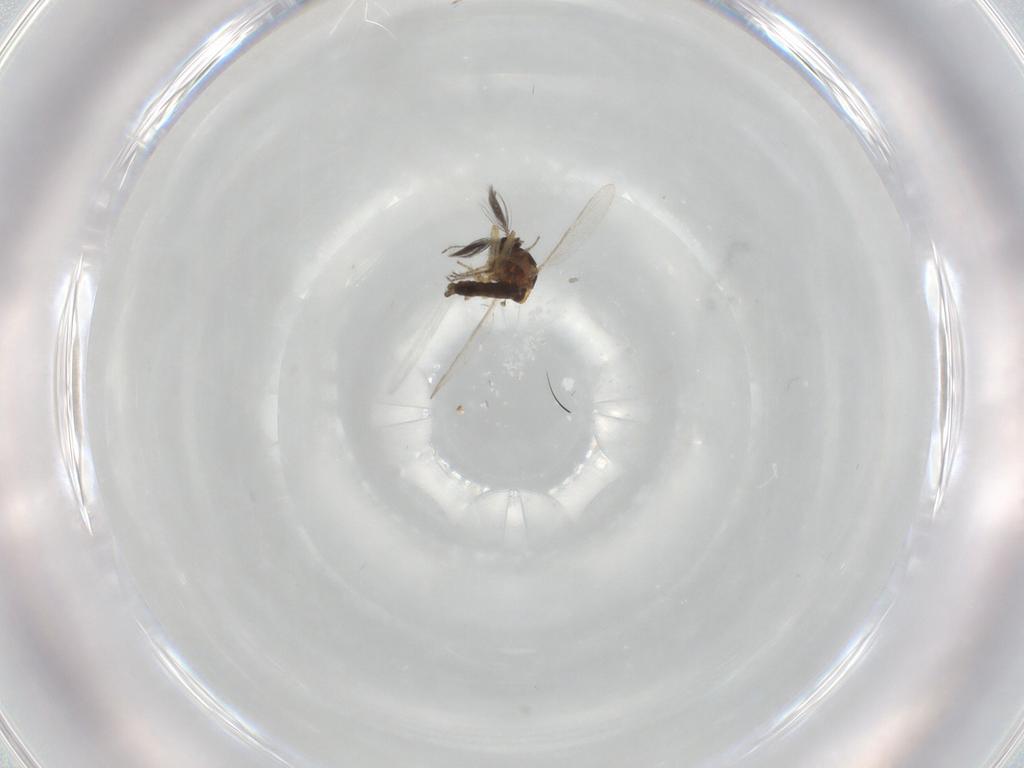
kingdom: Animalia
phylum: Arthropoda
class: Insecta
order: Diptera
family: Ceratopogonidae
